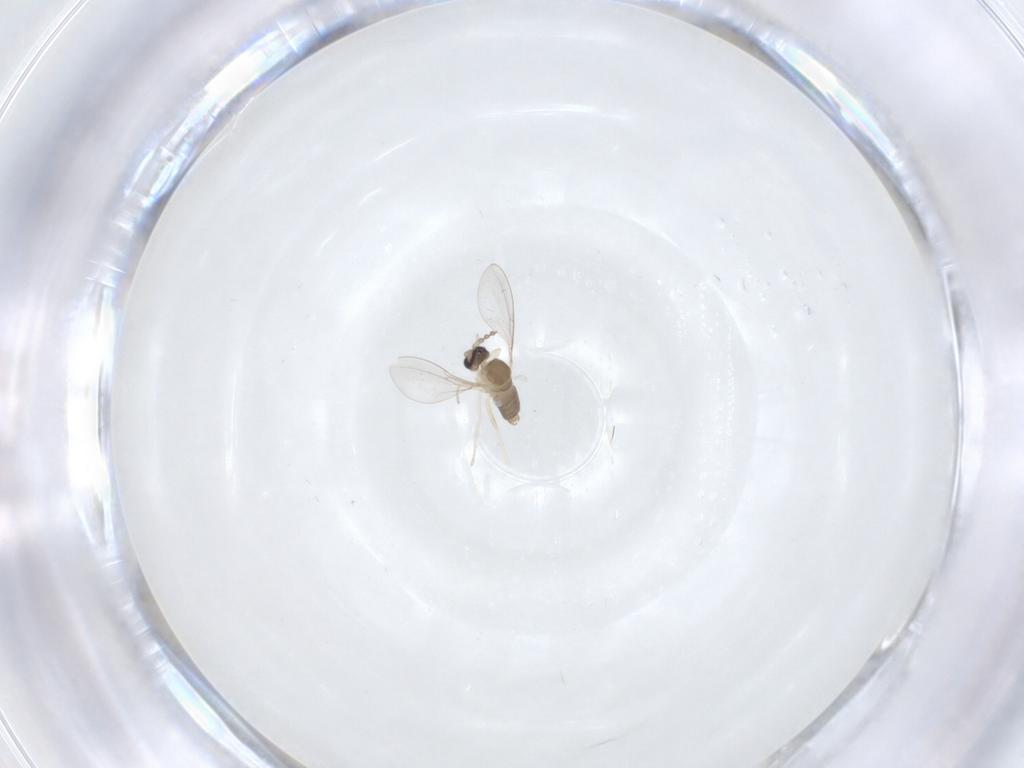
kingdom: Animalia
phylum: Arthropoda
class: Insecta
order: Diptera
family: Cecidomyiidae
